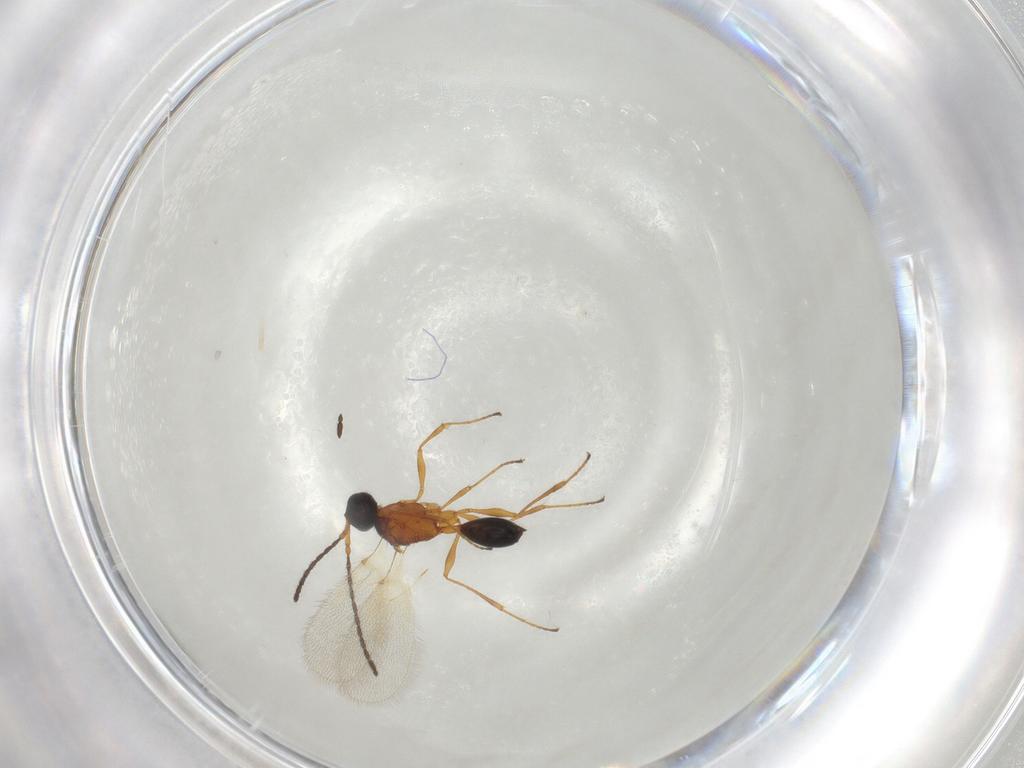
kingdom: Animalia
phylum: Arthropoda
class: Insecta
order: Hymenoptera
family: Diapriidae
